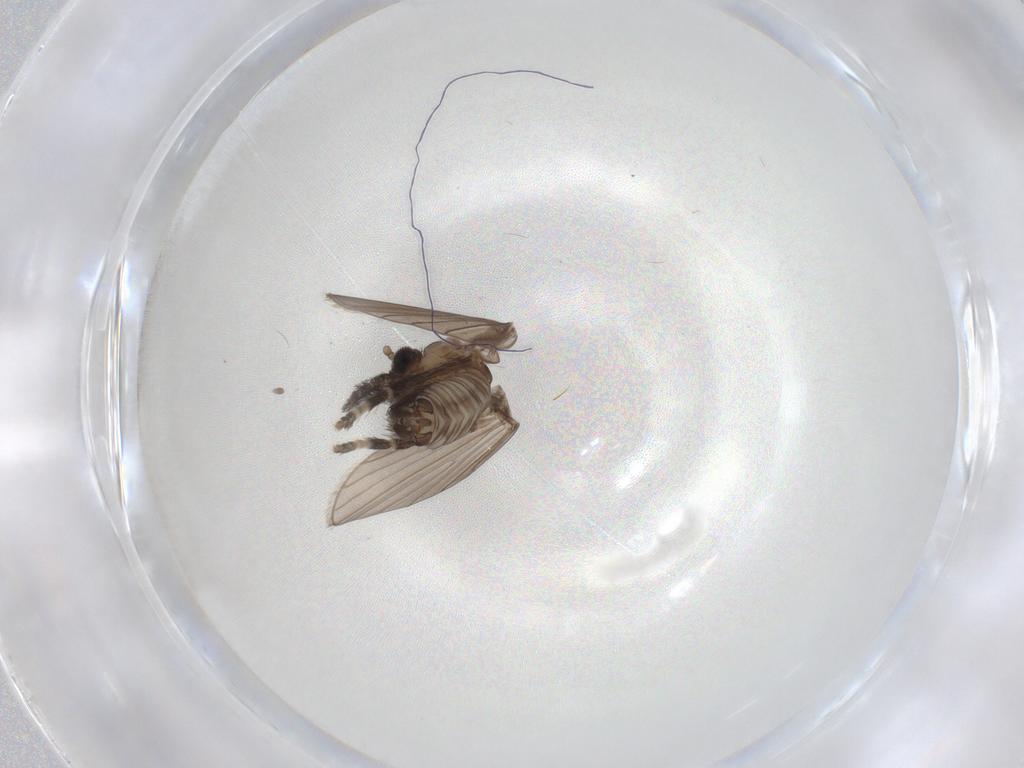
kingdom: Animalia
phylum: Arthropoda
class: Insecta
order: Diptera
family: Ceratopogonidae
